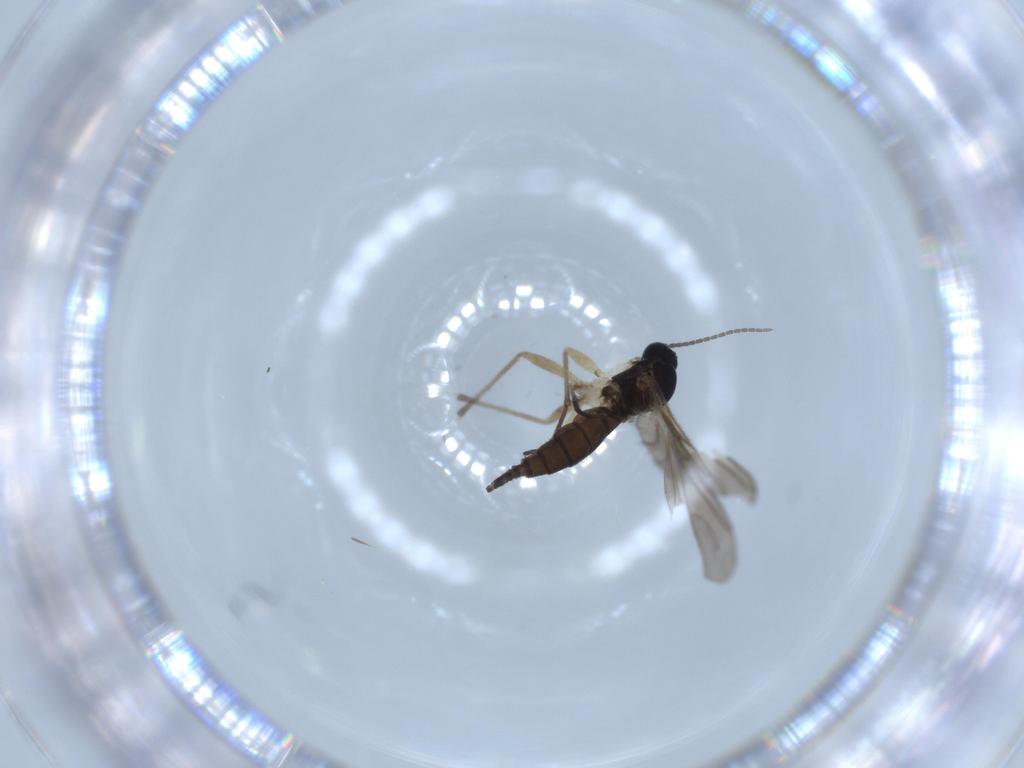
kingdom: Animalia
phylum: Arthropoda
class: Insecta
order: Diptera
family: Sciaridae
